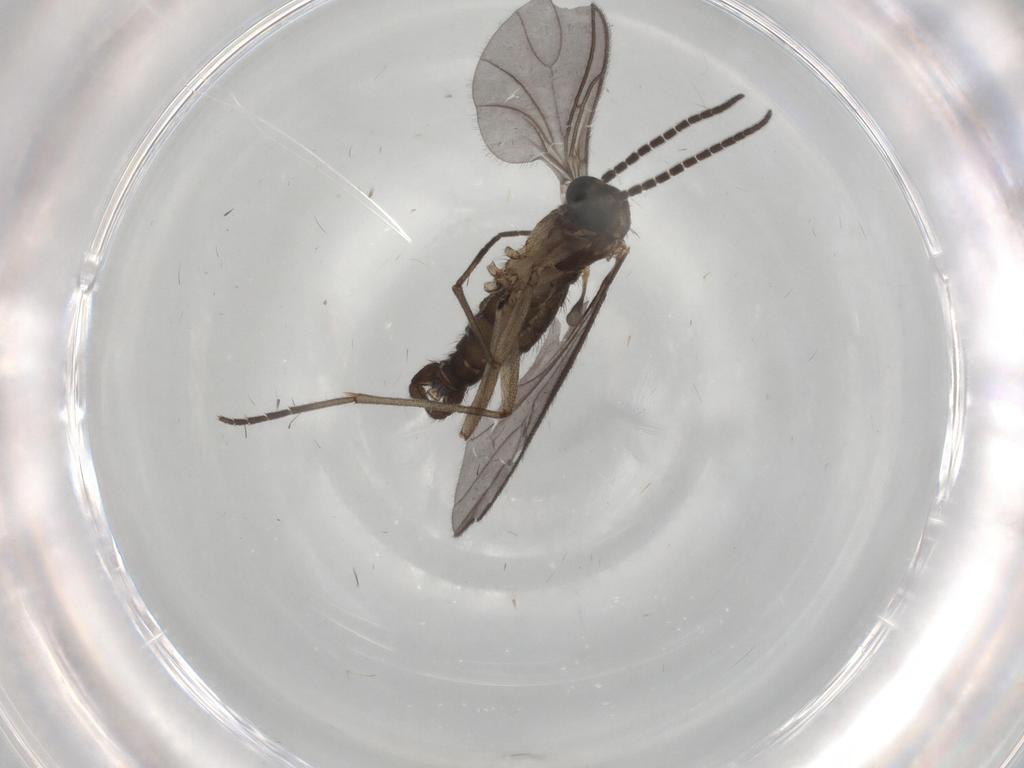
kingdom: Animalia
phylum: Arthropoda
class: Insecta
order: Diptera
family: Sciaridae
